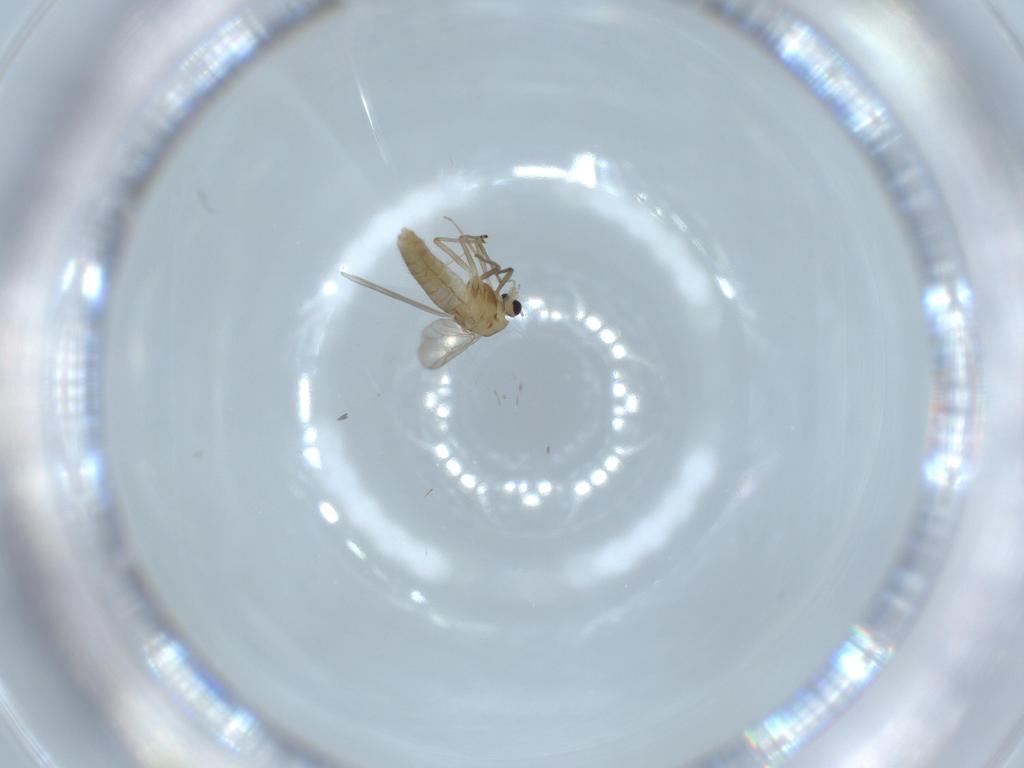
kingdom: Animalia
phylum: Arthropoda
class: Insecta
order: Diptera
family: Chironomidae
